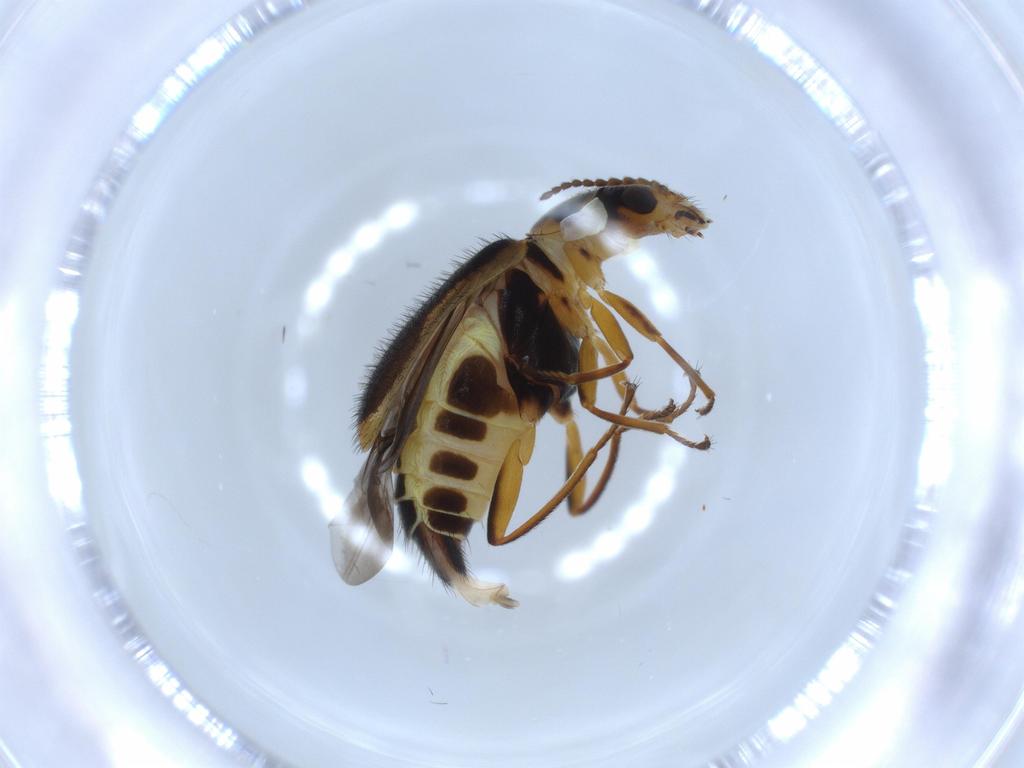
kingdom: Animalia
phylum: Arthropoda
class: Insecta
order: Coleoptera
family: Melyridae
